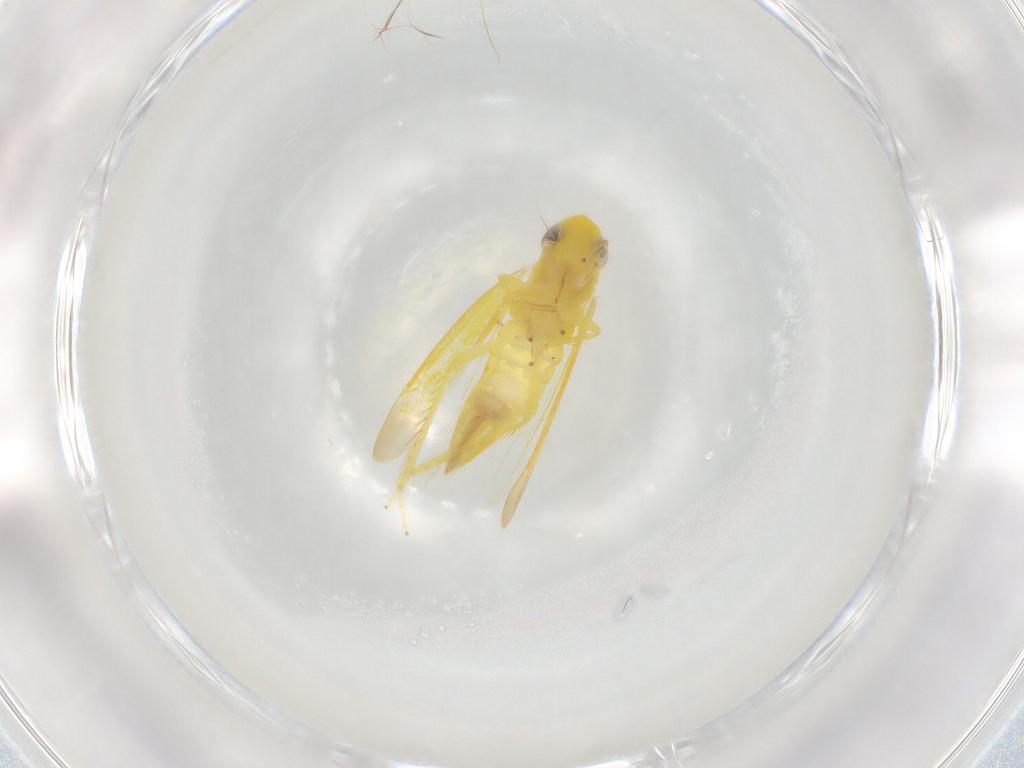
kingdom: Animalia
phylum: Arthropoda
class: Insecta
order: Hemiptera
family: Cicadellidae
